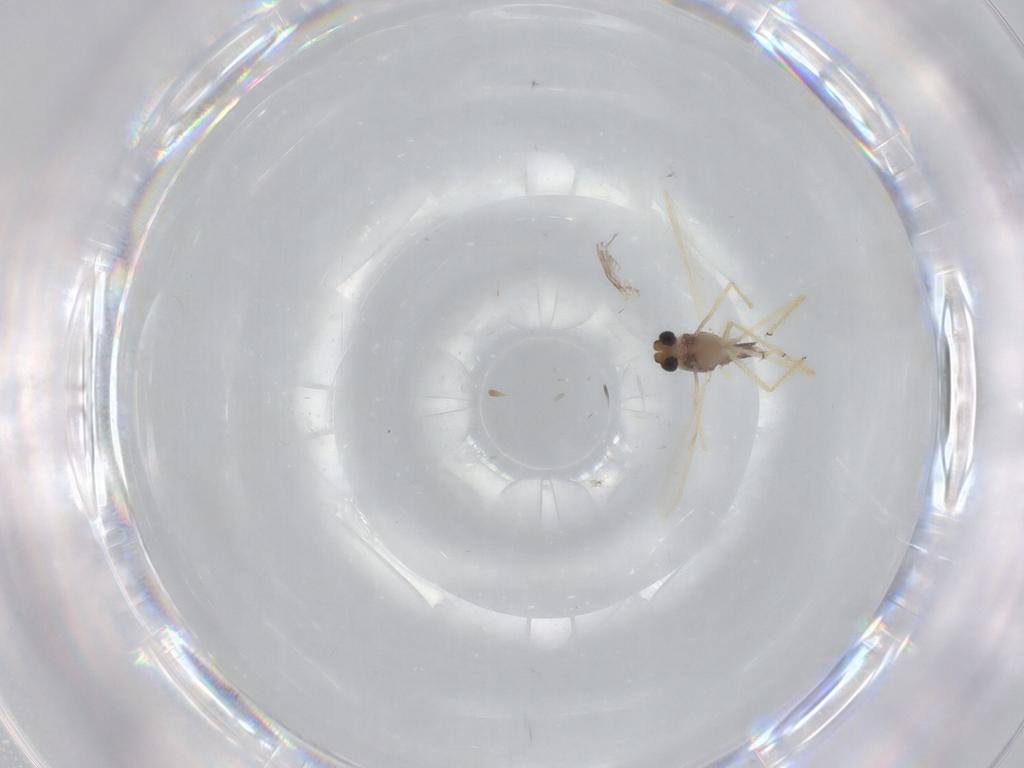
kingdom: Animalia
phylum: Arthropoda
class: Insecta
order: Diptera
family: Chironomidae
